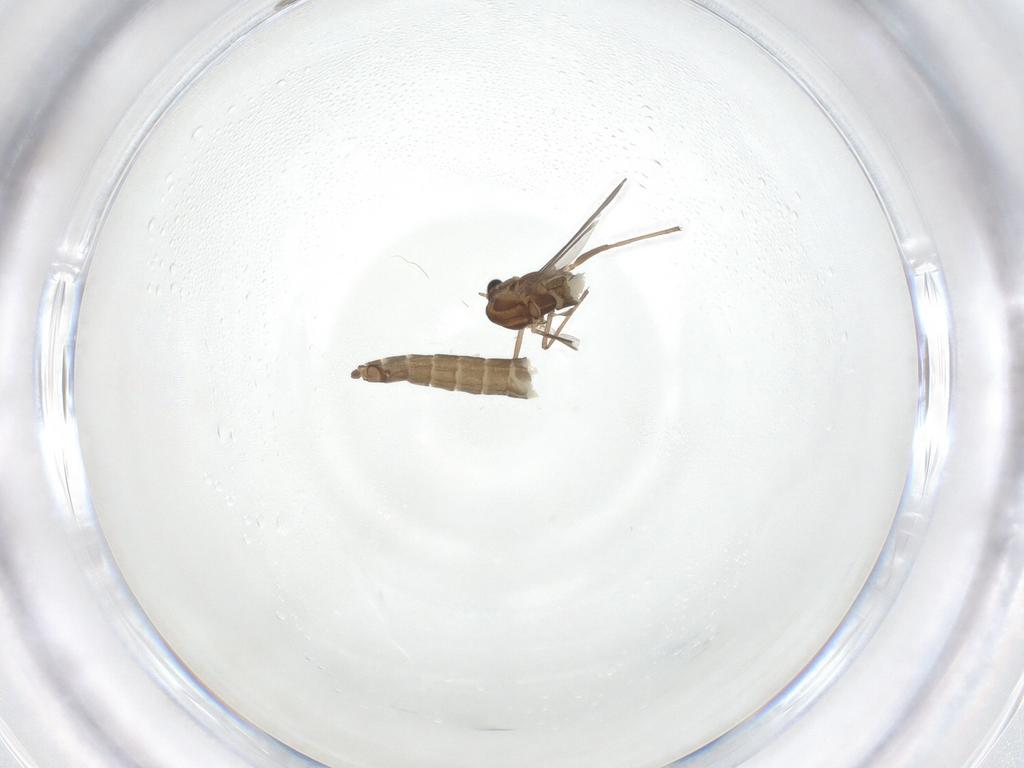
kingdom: Animalia
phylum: Arthropoda
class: Insecta
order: Diptera
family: Chironomidae
